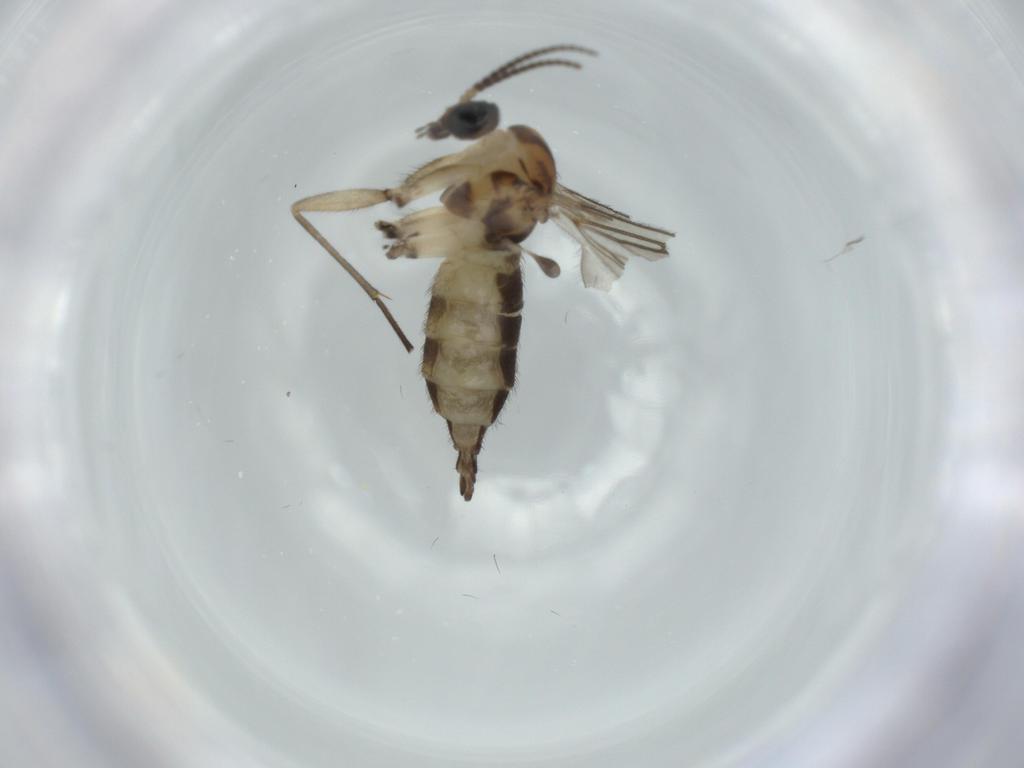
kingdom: Animalia
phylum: Arthropoda
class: Insecta
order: Diptera
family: Sciaridae
